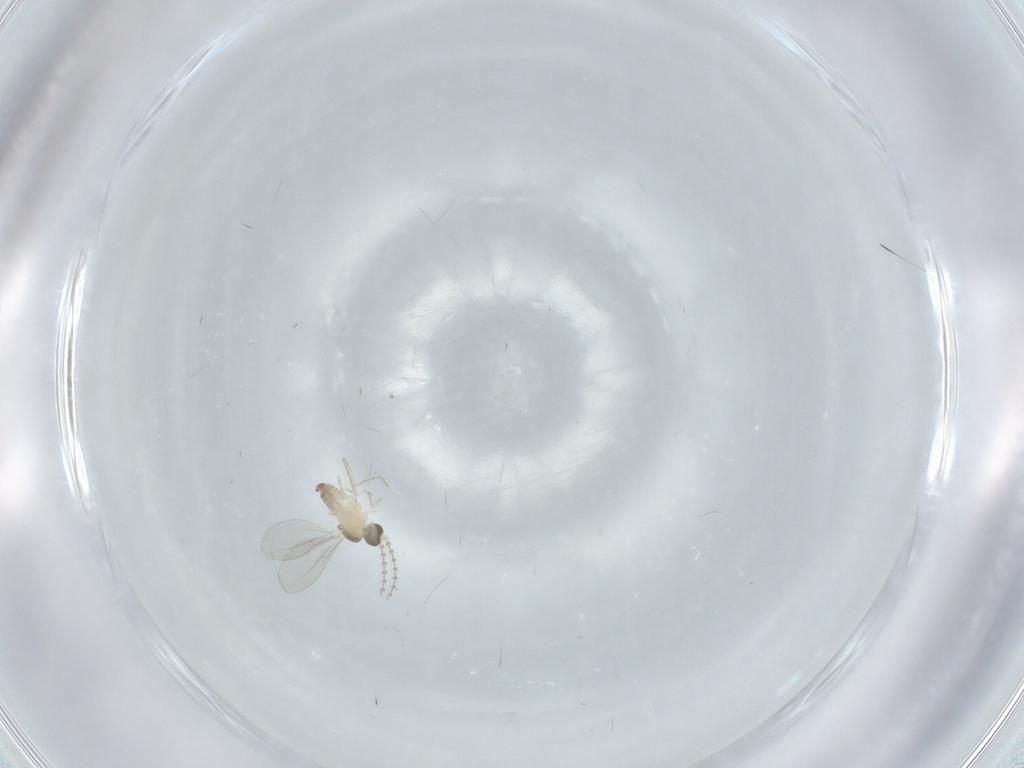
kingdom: Animalia
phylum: Arthropoda
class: Insecta
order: Diptera
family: Cecidomyiidae
